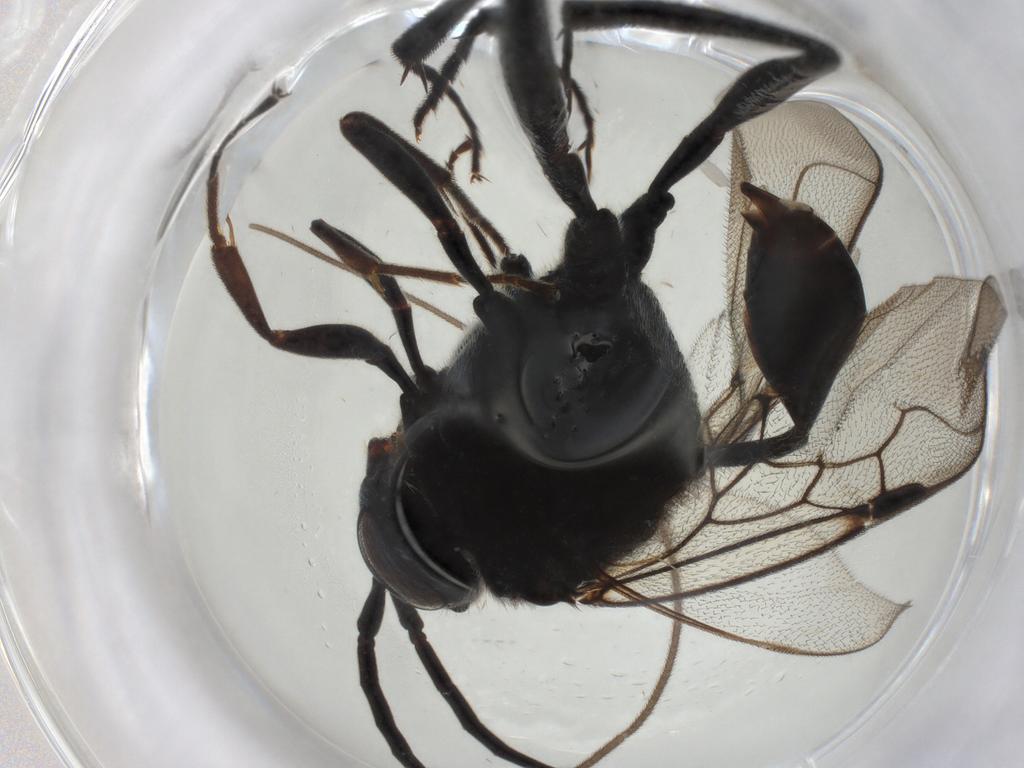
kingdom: Animalia
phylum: Arthropoda
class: Insecta
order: Hymenoptera
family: Evaniidae
